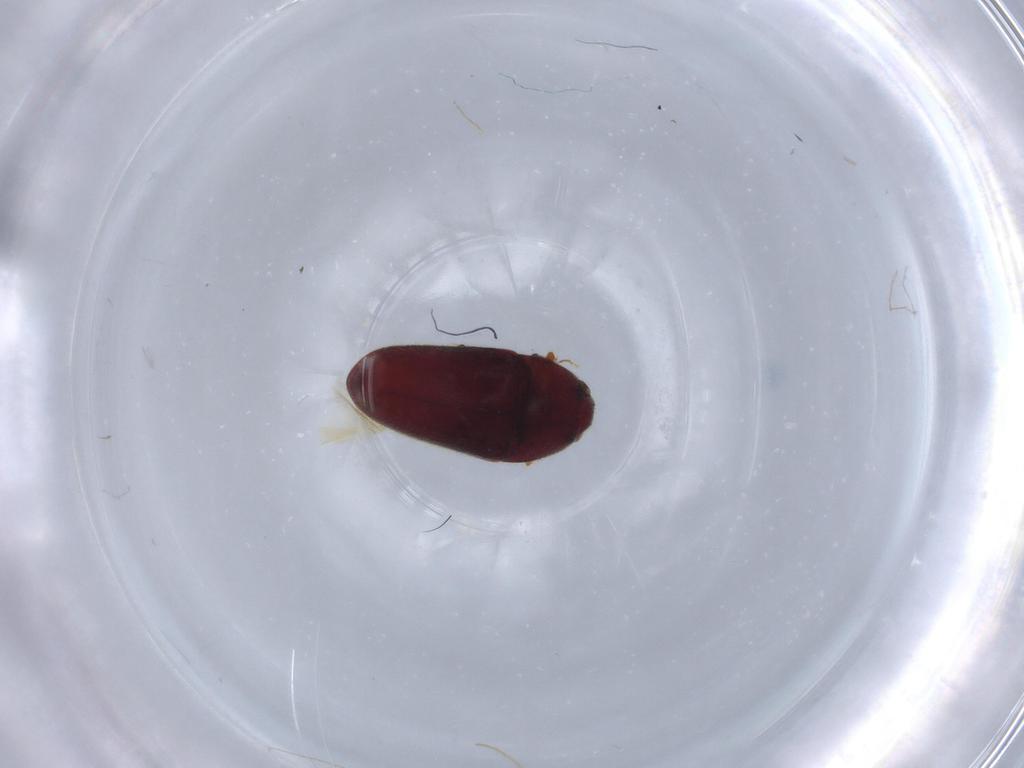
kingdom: Animalia
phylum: Arthropoda
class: Insecta
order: Coleoptera
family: Throscidae
